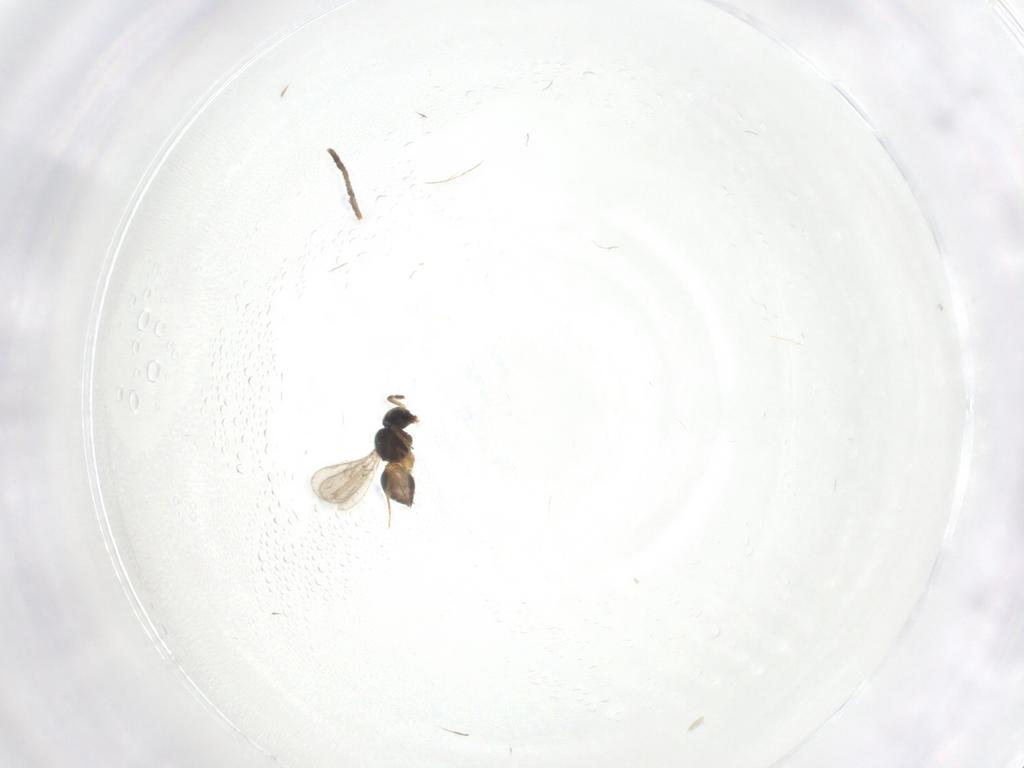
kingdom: Animalia
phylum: Arthropoda
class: Insecta
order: Hymenoptera
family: Scelionidae
